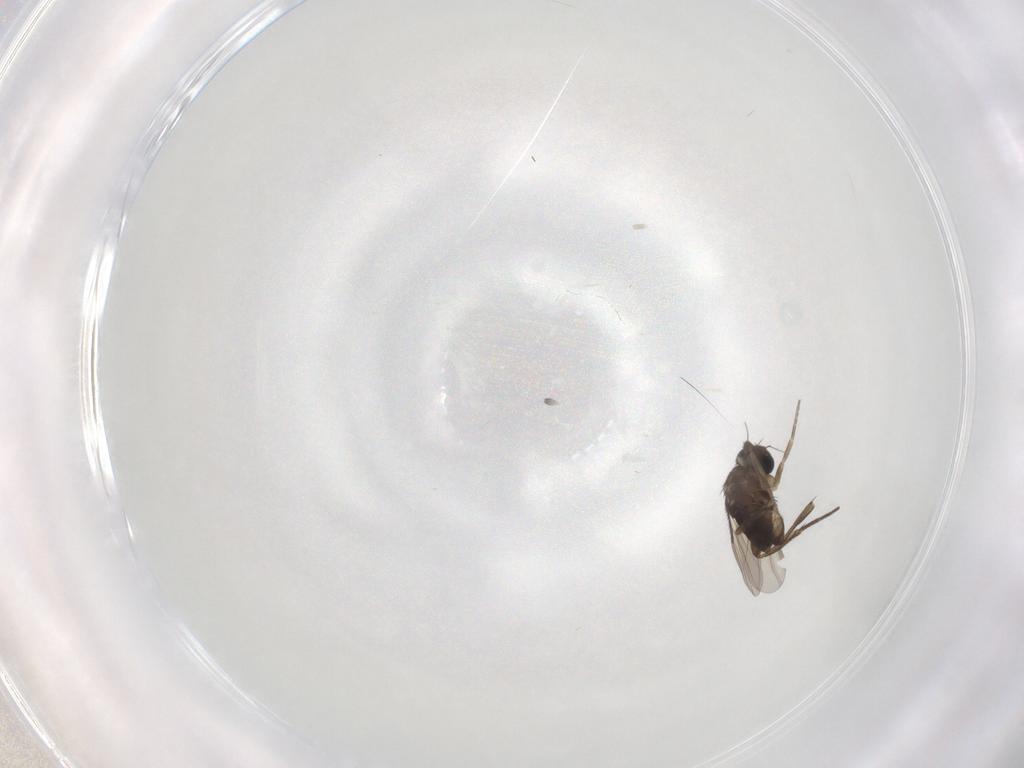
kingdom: Animalia
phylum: Arthropoda
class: Insecta
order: Diptera
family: Phoridae
